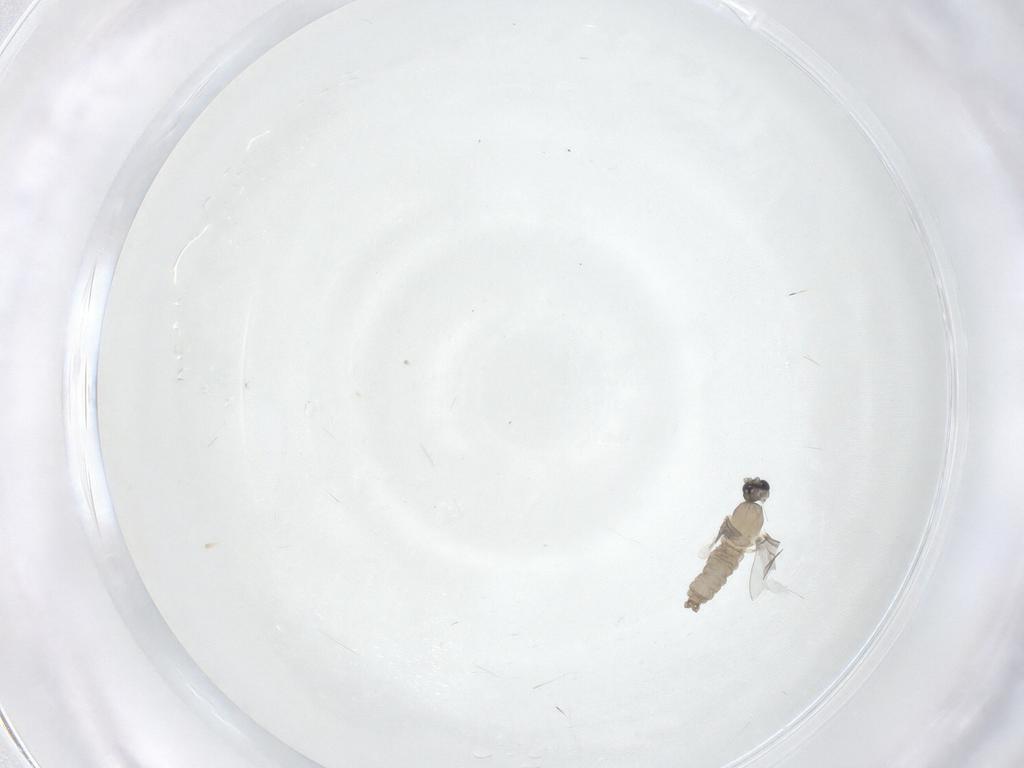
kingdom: Animalia
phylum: Arthropoda
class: Insecta
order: Diptera
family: Cecidomyiidae
